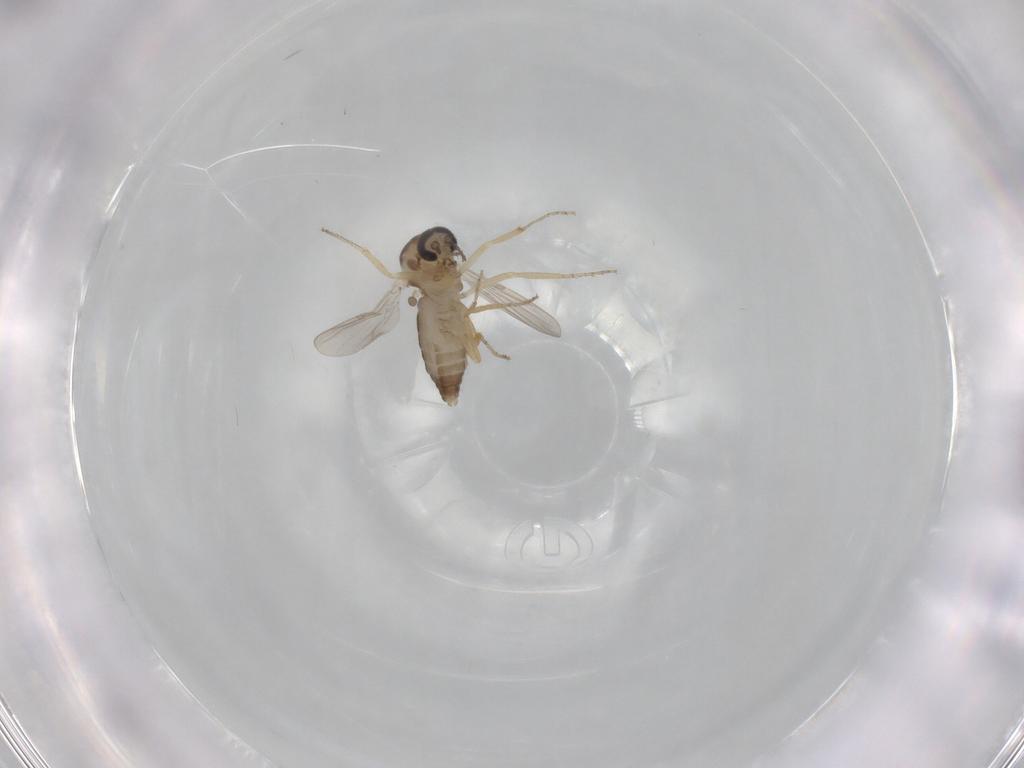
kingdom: Animalia
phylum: Arthropoda
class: Insecta
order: Diptera
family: Ceratopogonidae
